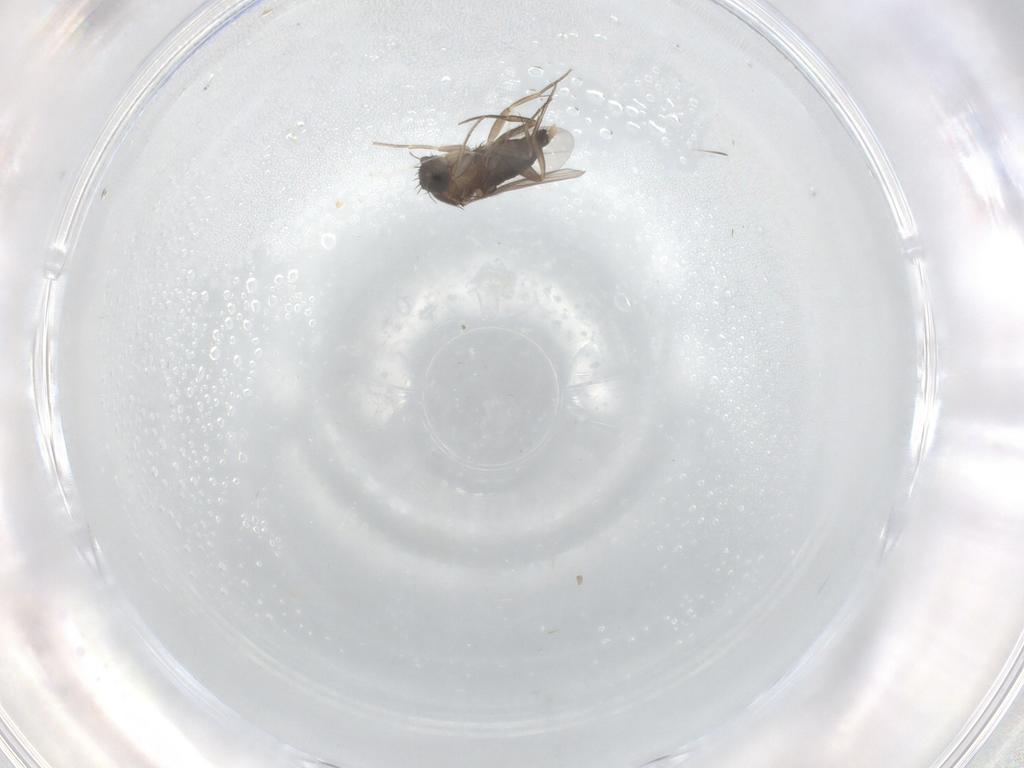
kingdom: Animalia
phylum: Arthropoda
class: Insecta
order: Diptera
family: Phoridae
